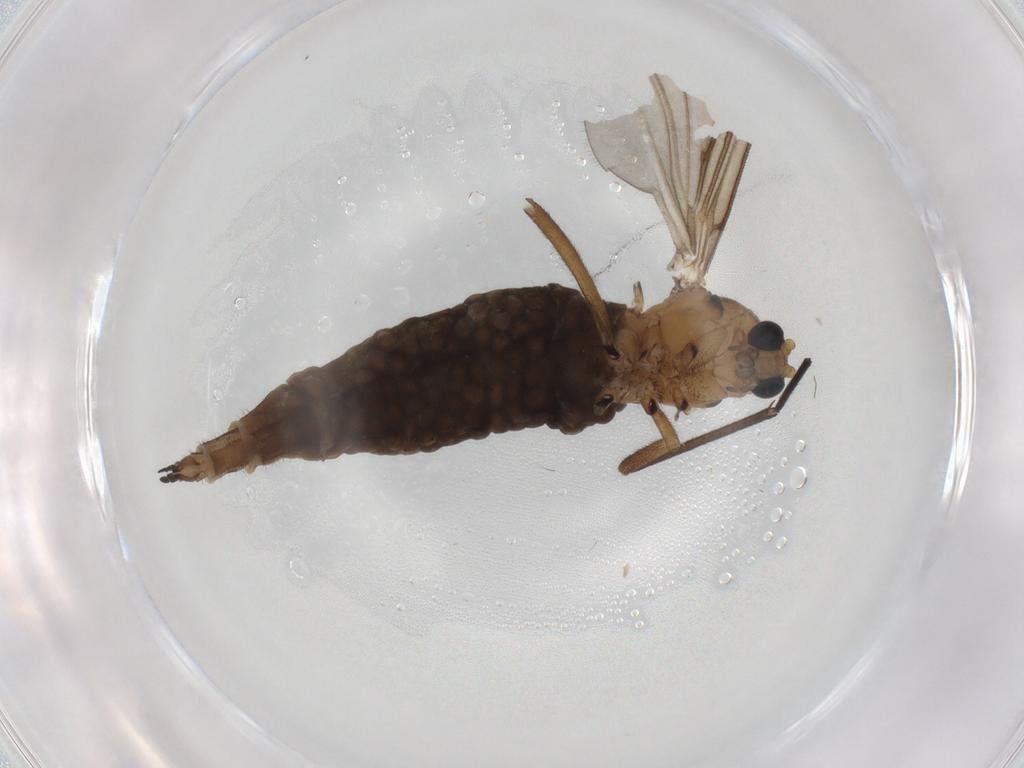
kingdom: Animalia
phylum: Arthropoda
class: Insecta
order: Diptera
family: Sciaridae
